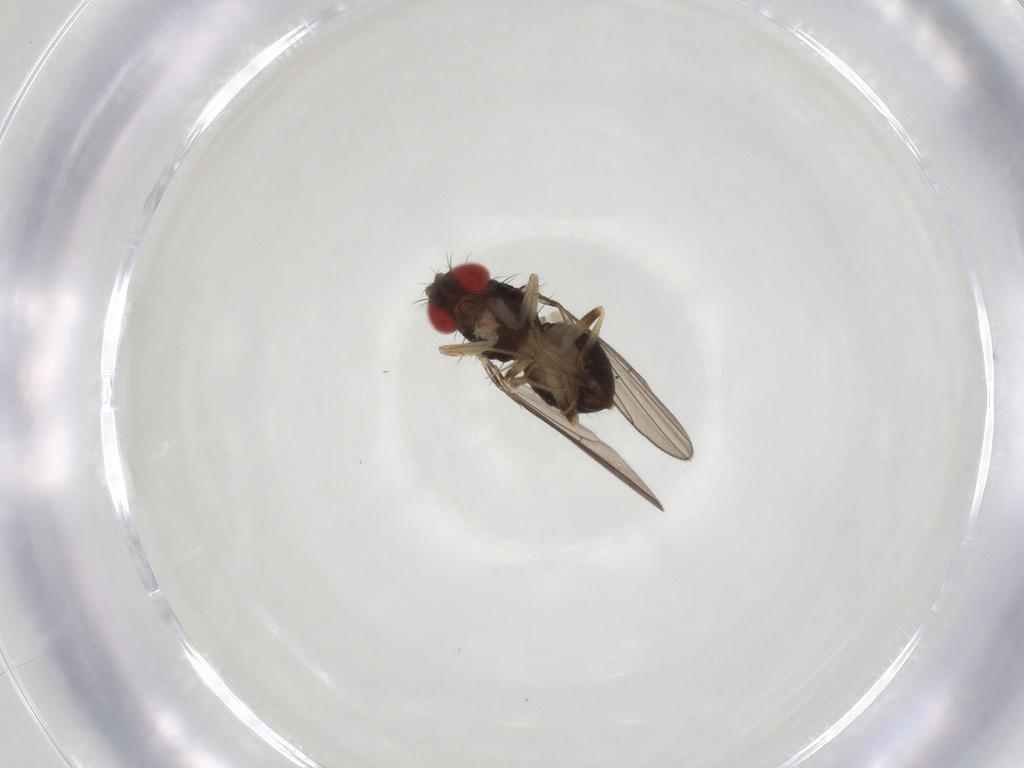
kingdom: Animalia
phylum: Arthropoda
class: Insecta
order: Diptera
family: Drosophilidae
